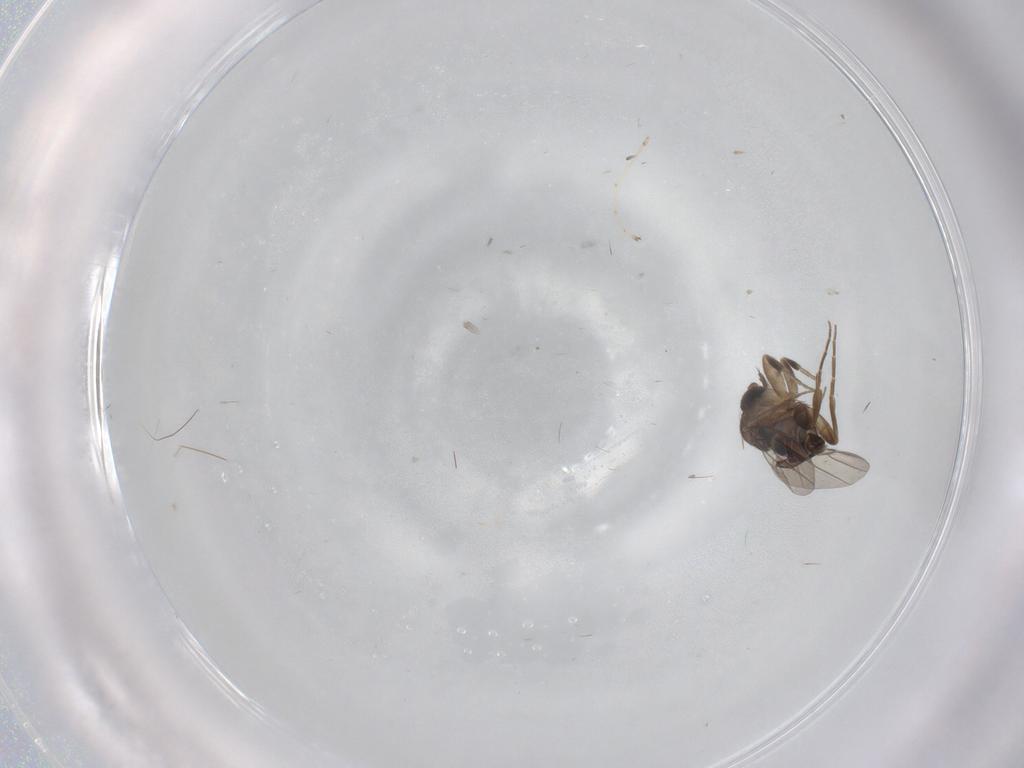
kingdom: Animalia
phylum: Arthropoda
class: Insecta
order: Diptera
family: Phoridae
